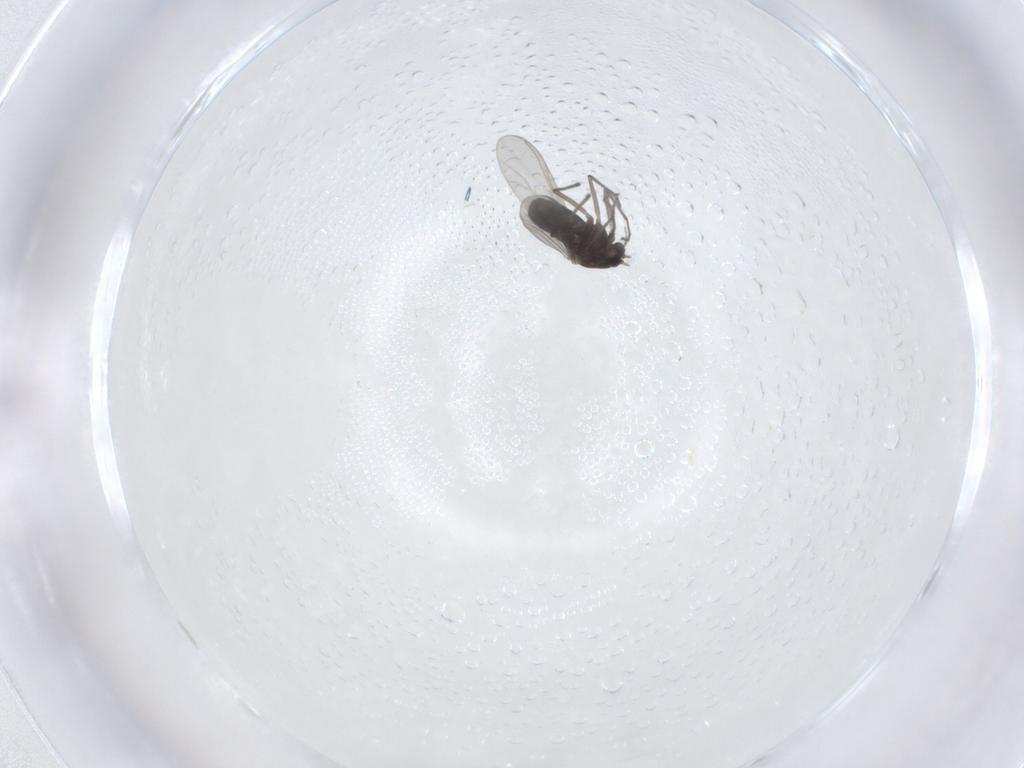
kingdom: Animalia
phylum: Arthropoda
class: Insecta
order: Diptera
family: Chironomidae
